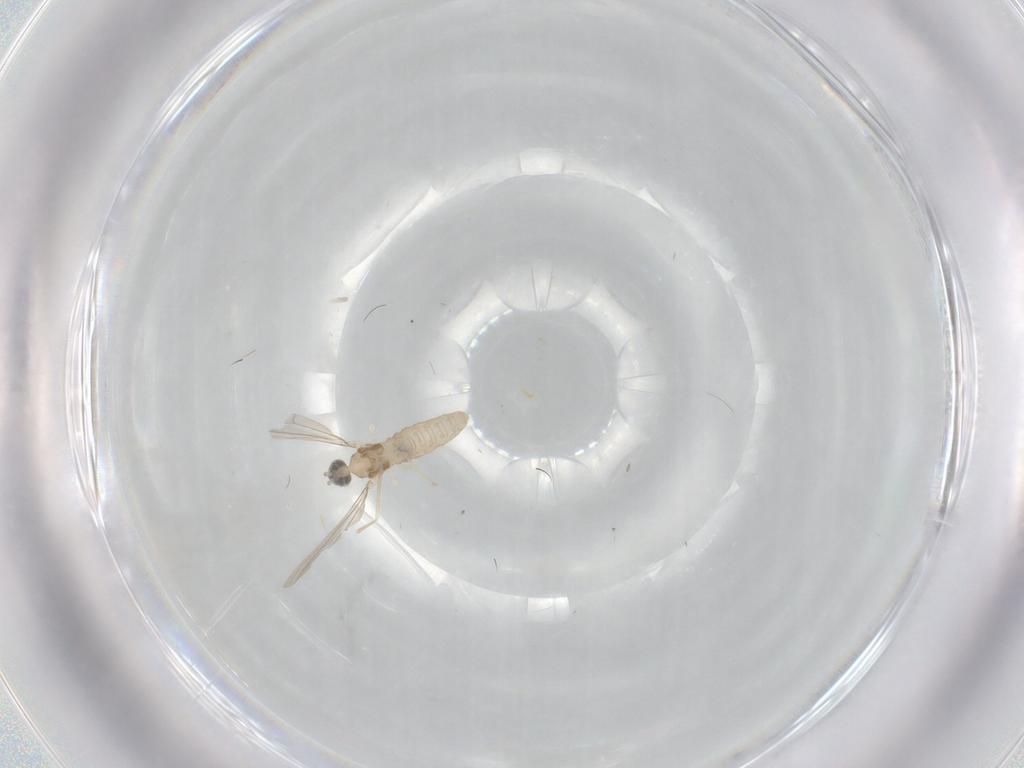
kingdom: Animalia
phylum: Arthropoda
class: Insecta
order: Diptera
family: Cecidomyiidae
